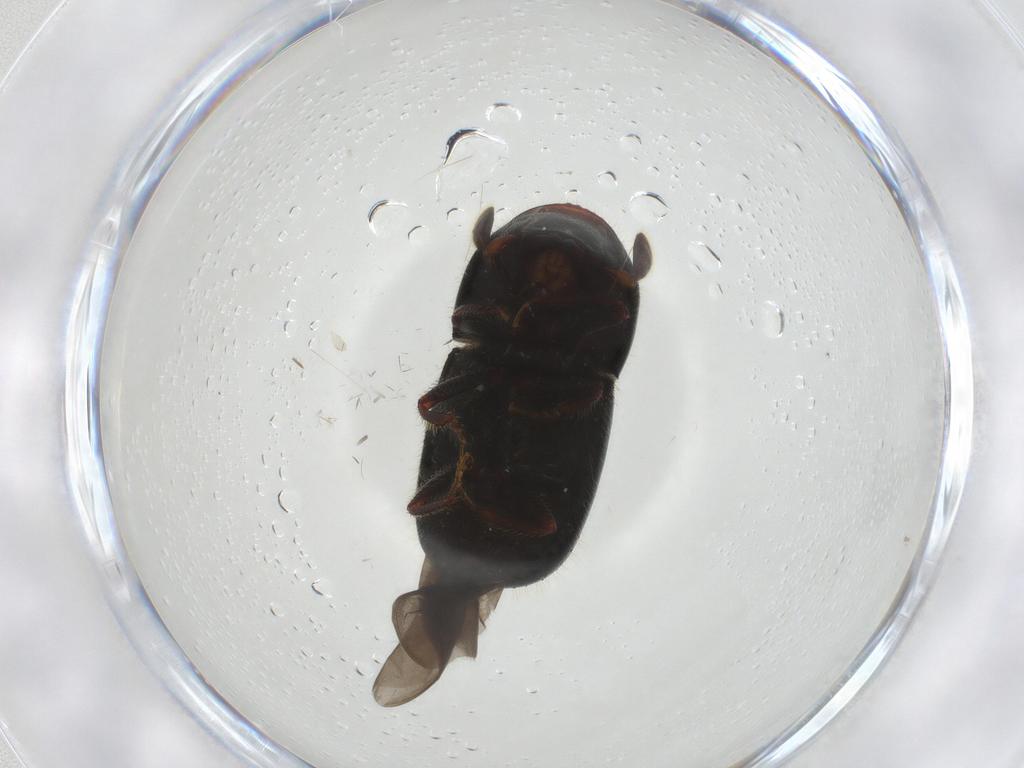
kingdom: Animalia
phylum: Arthropoda
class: Insecta
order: Coleoptera
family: Curculionidae
